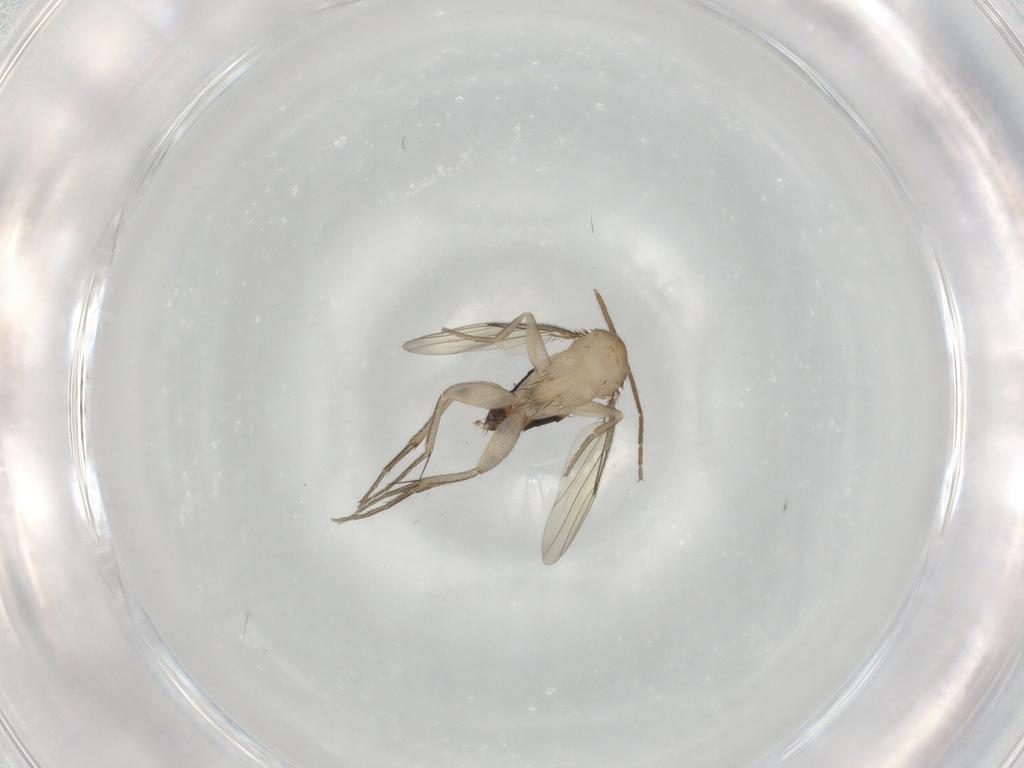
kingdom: Animalia
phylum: Arthropoda
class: Insecta
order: Diptera
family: Phoridae
